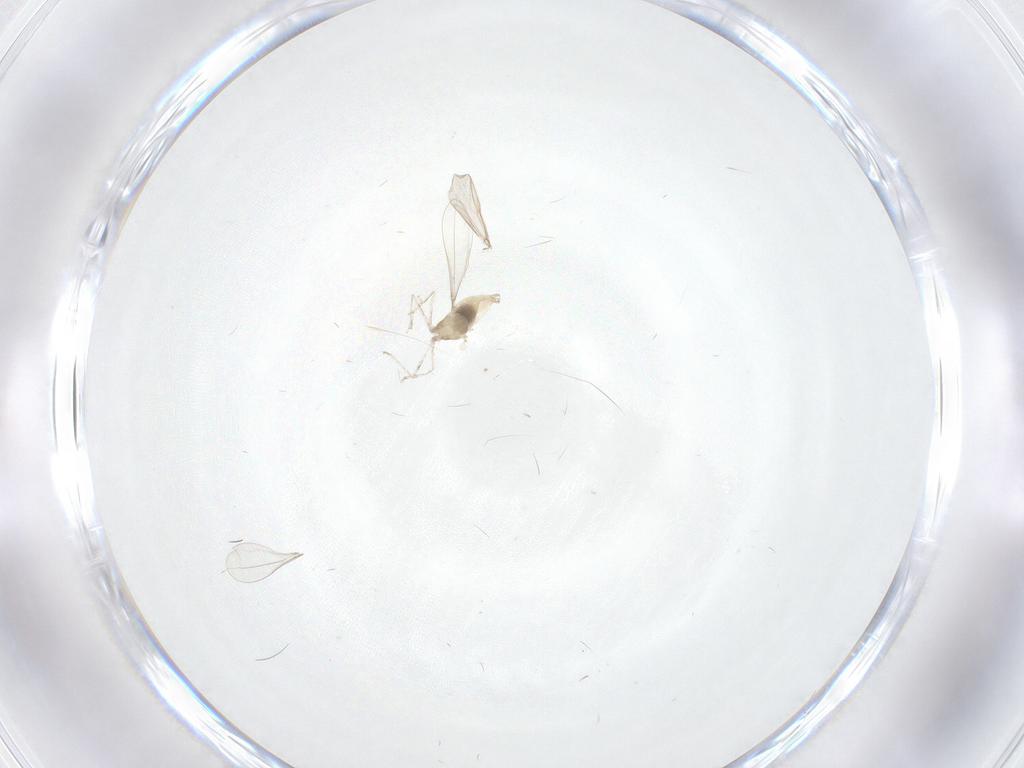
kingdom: Animalia
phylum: Arthropoda
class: Insecta
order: Diptera
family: Cecidomyiidae
